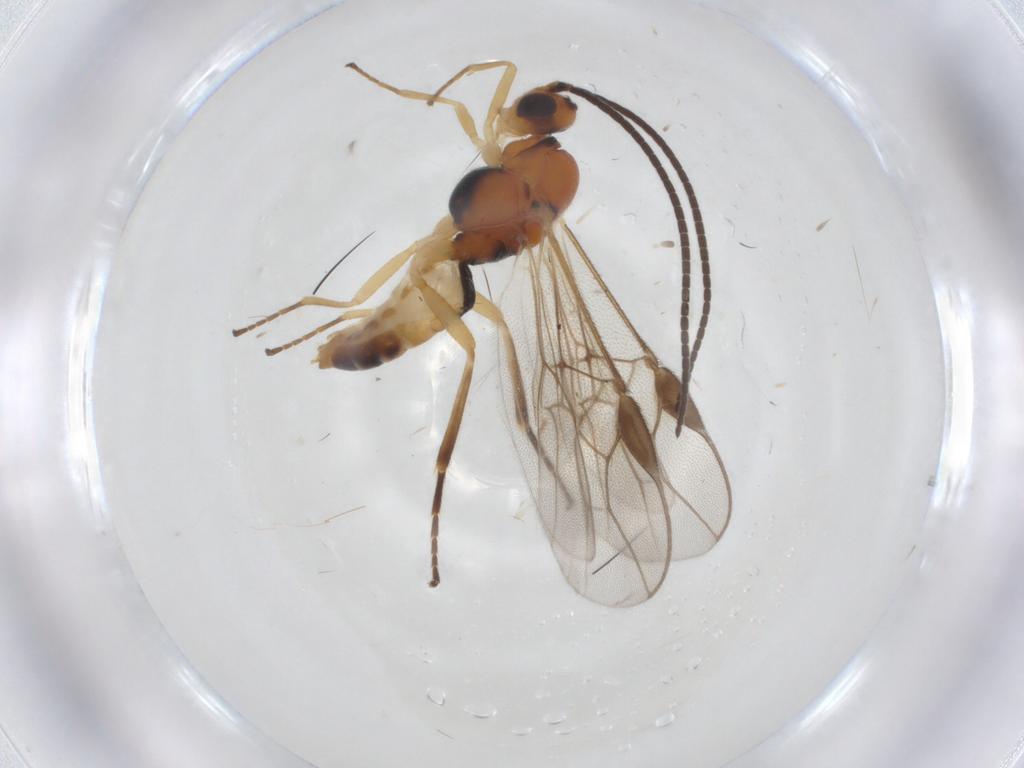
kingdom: Animalia
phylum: Arthropoda
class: Insecta
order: Hymenoptera
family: Braconidae
